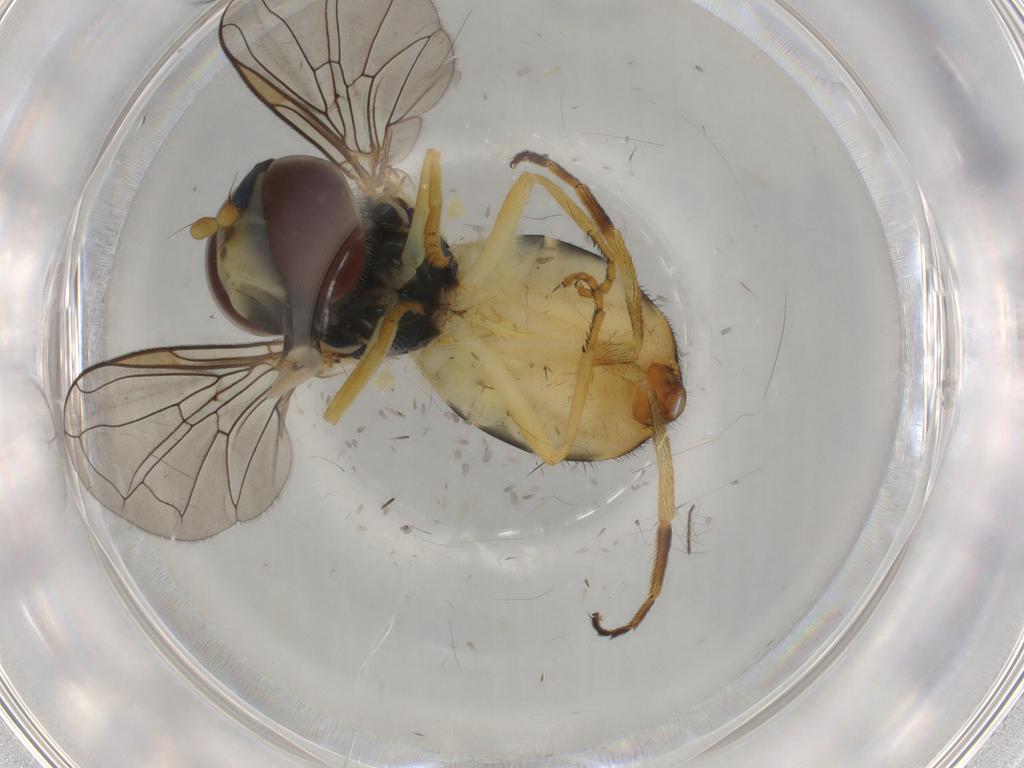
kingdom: Animalia
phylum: Arthropoda
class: Insecta
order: Diptera
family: Syrphidae
